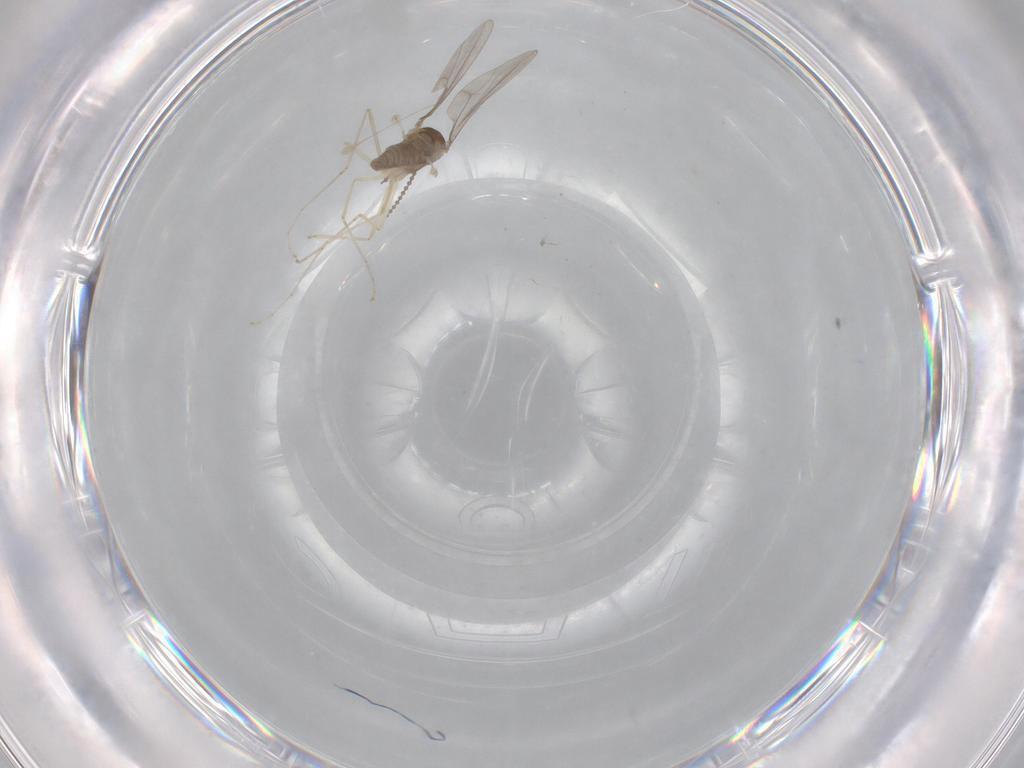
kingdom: Animalia
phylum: Arthropoda
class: Insecta
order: Diptera
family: Cecidomyiidae
